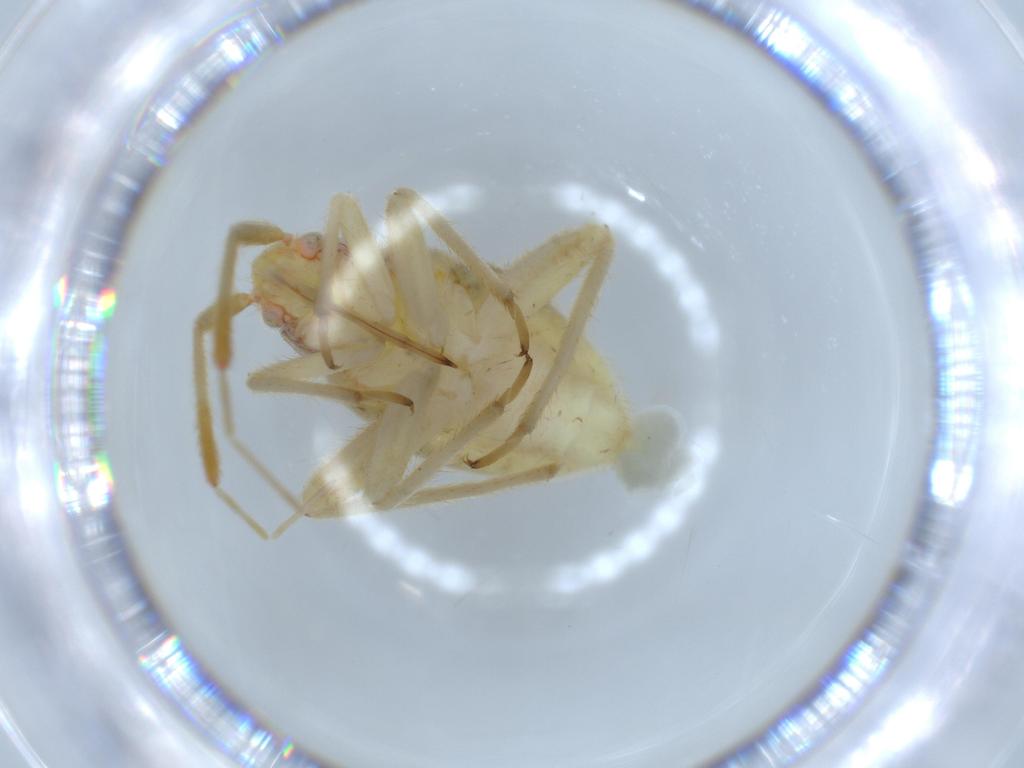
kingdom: Animalia
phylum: Arthropoda
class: Insecta
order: Hemiptera
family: Miridae
